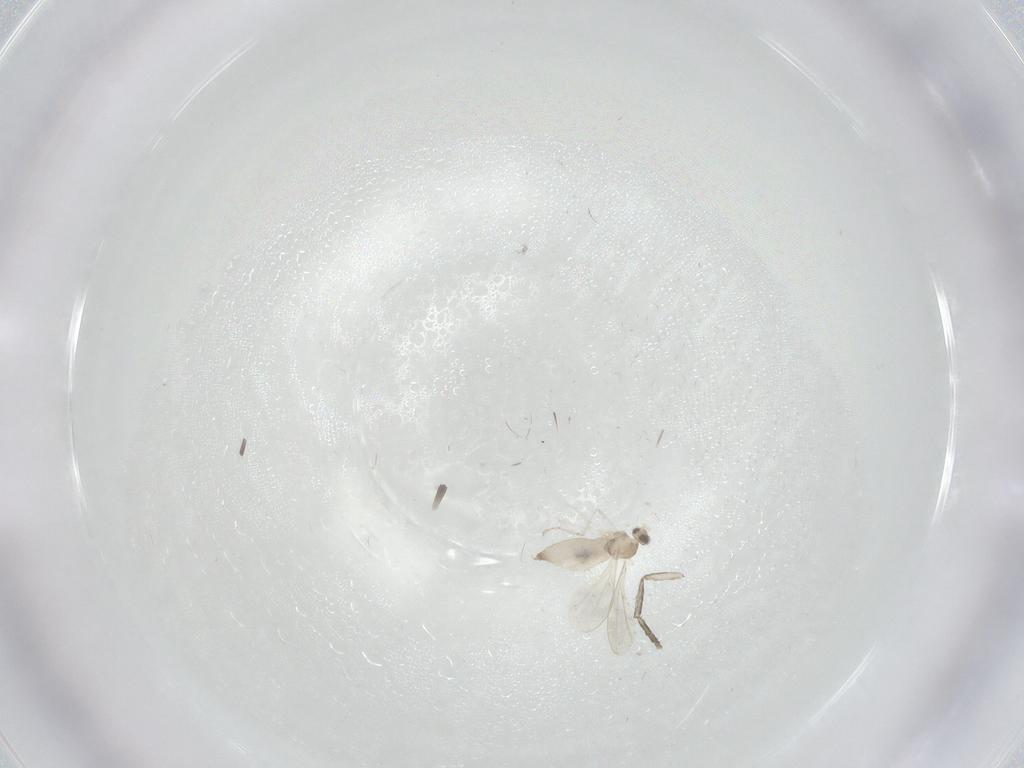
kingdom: Animalia
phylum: Arthropoda
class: Insecta
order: Diptera
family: Cecidomyiidae
